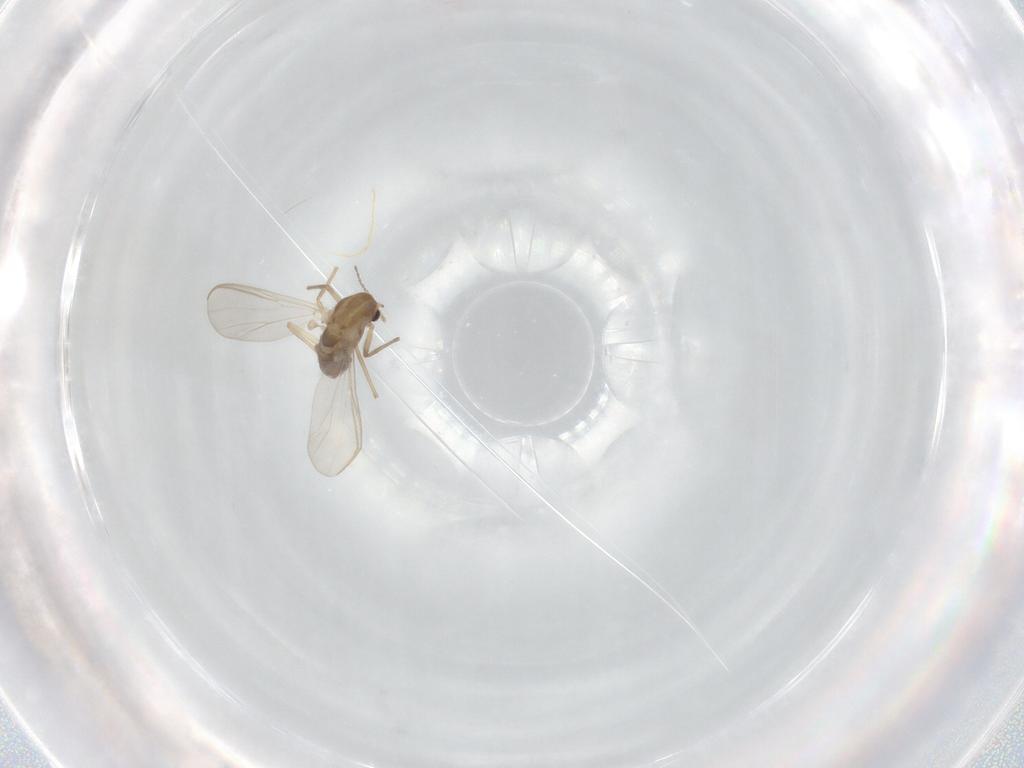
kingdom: Animalia
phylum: Arthropoda
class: Insecta
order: Diptera
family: Chironomidae
